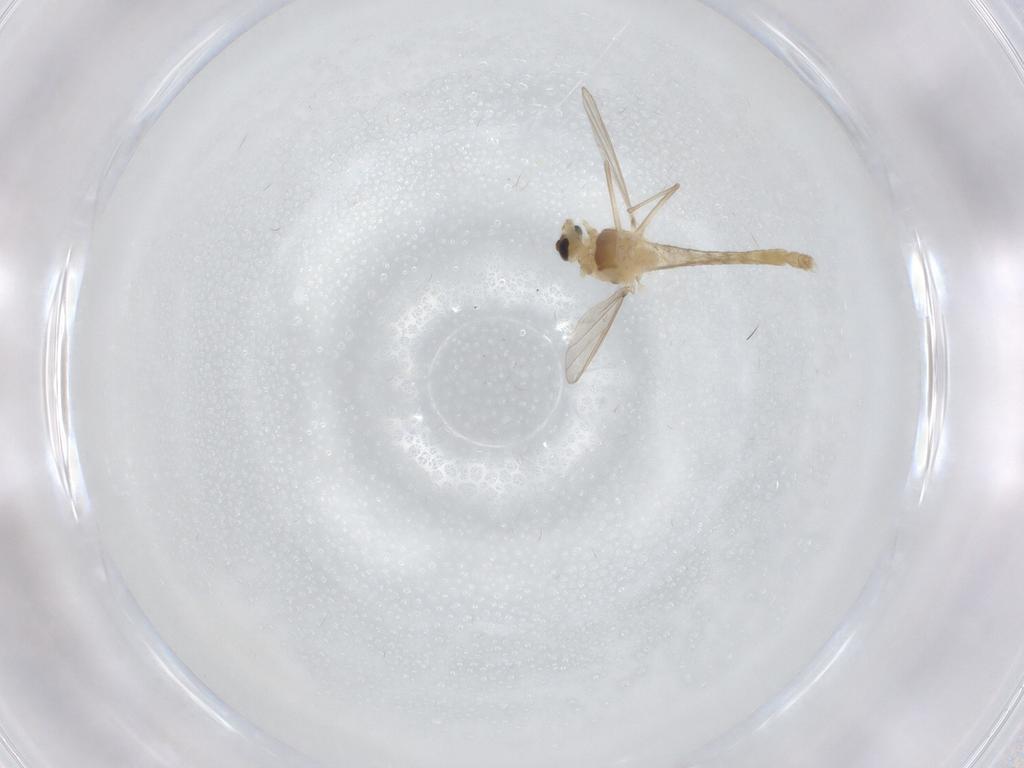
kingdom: Animalia
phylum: Arthropoda
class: Insecta
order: Diptera
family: Chironomidae
